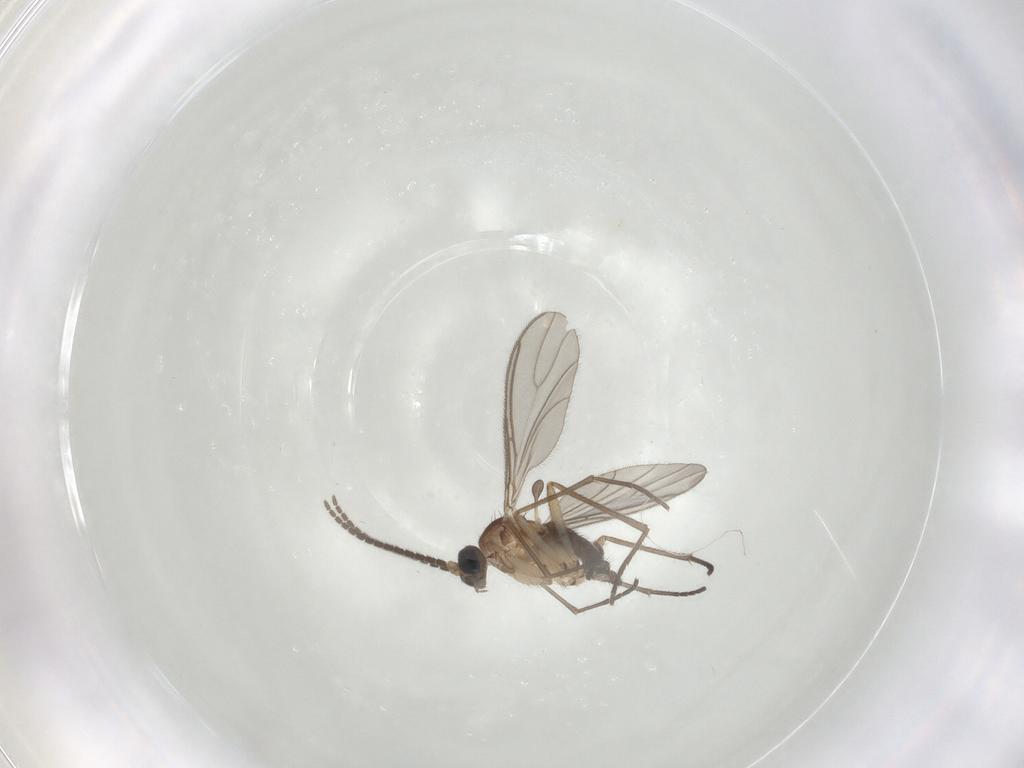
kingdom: Animalia
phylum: Arthropoda
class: Insecta
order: Diptera
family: Sciaridae
